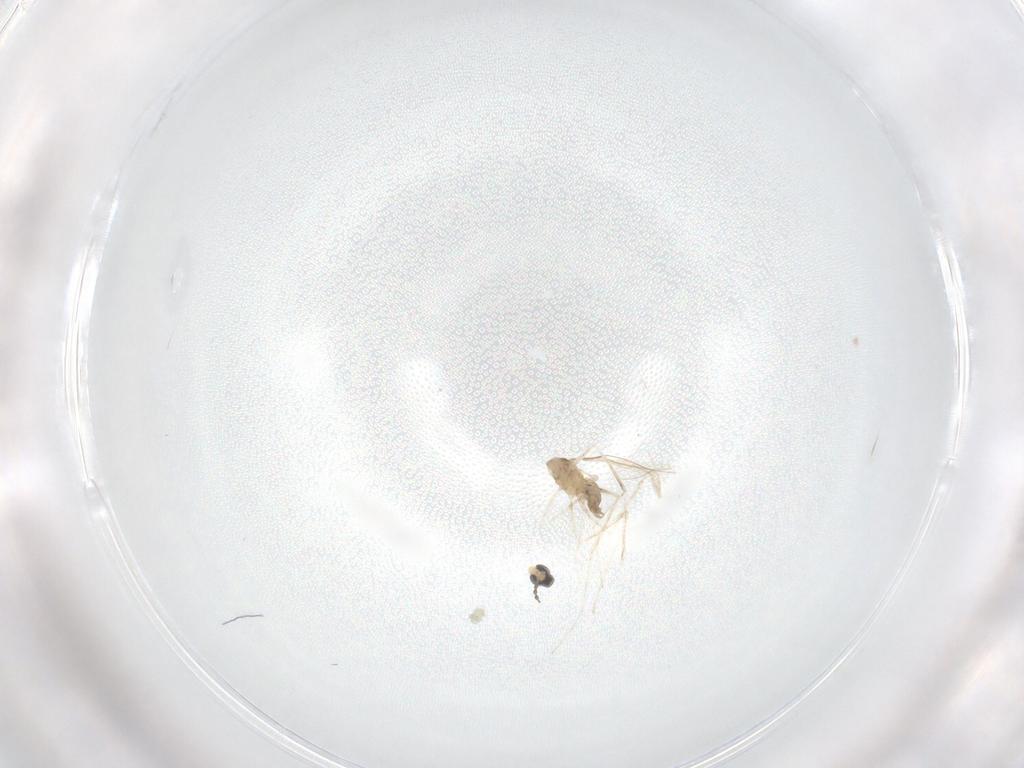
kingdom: Animalia
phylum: Arthropoda
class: Insecta
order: Diptera
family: Cecidomyiidae
